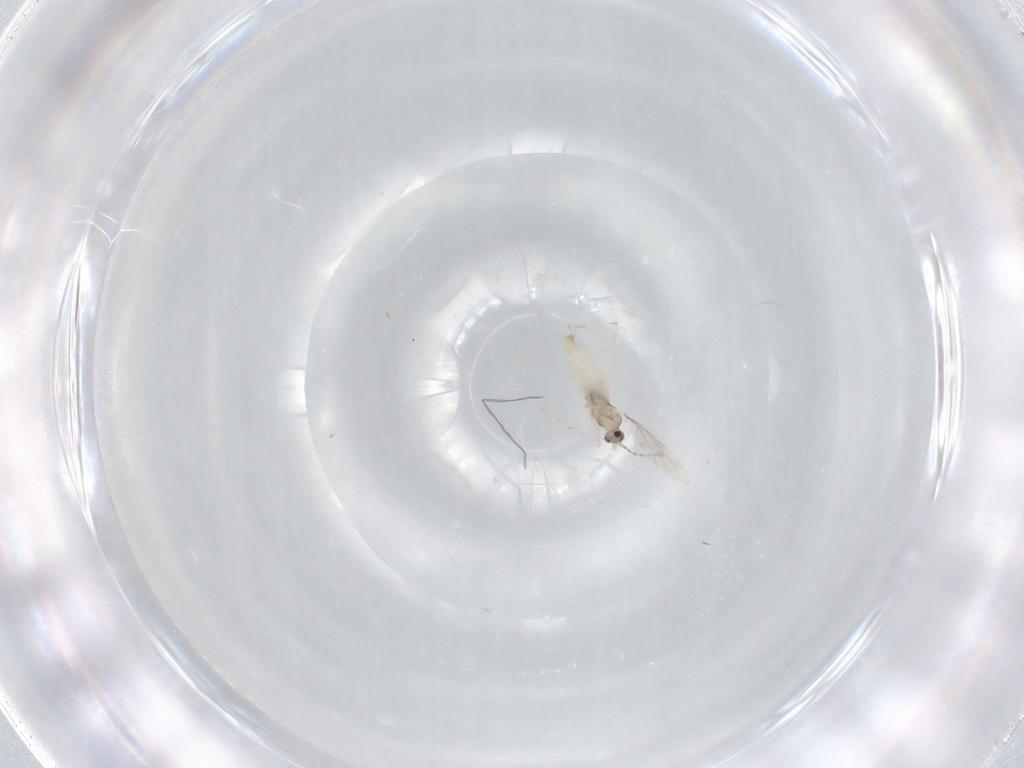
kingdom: Animalia
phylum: Arthropoda
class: Insecta
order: Diptera
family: Cecidomyiidae
